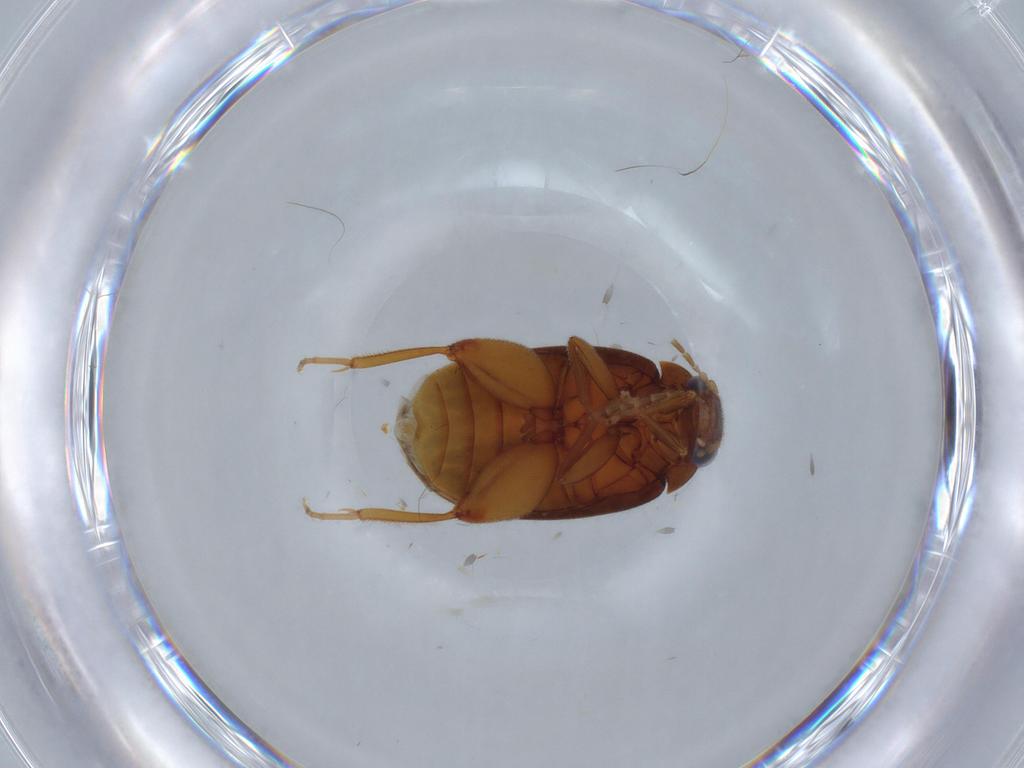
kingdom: Animalia
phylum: Arthropoda
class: Insecta
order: Coleoptera
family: Scirtidae
